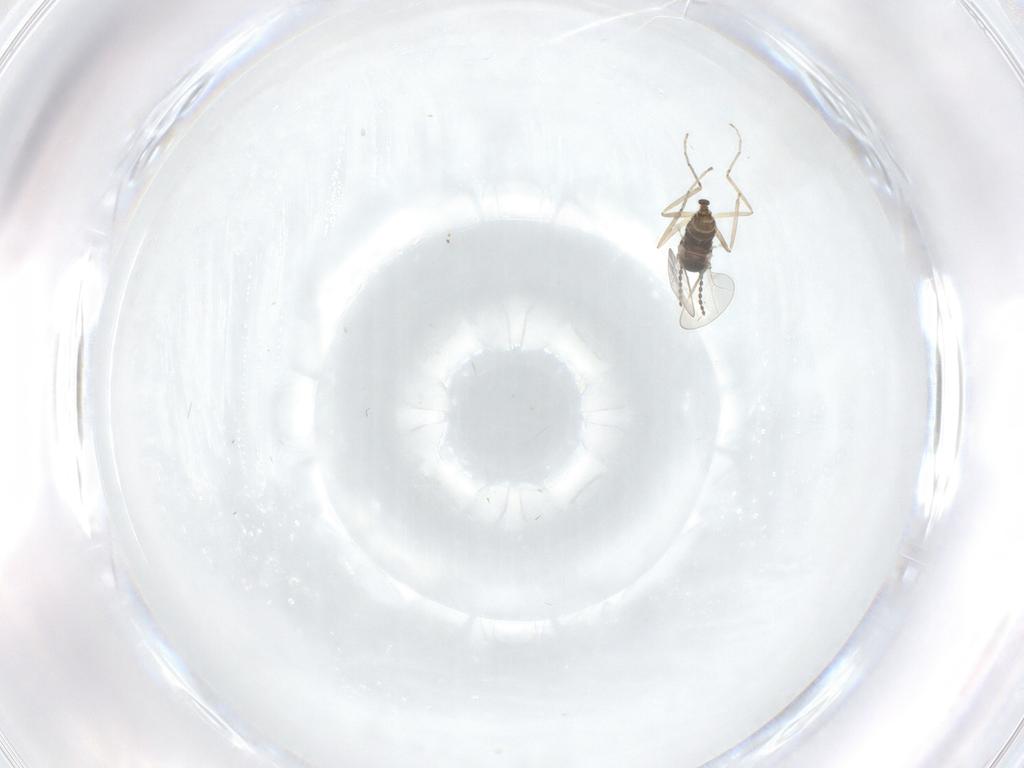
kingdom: Animalia
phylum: Arthropoda
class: Insecta
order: Diptera
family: Cecidomyiidae
